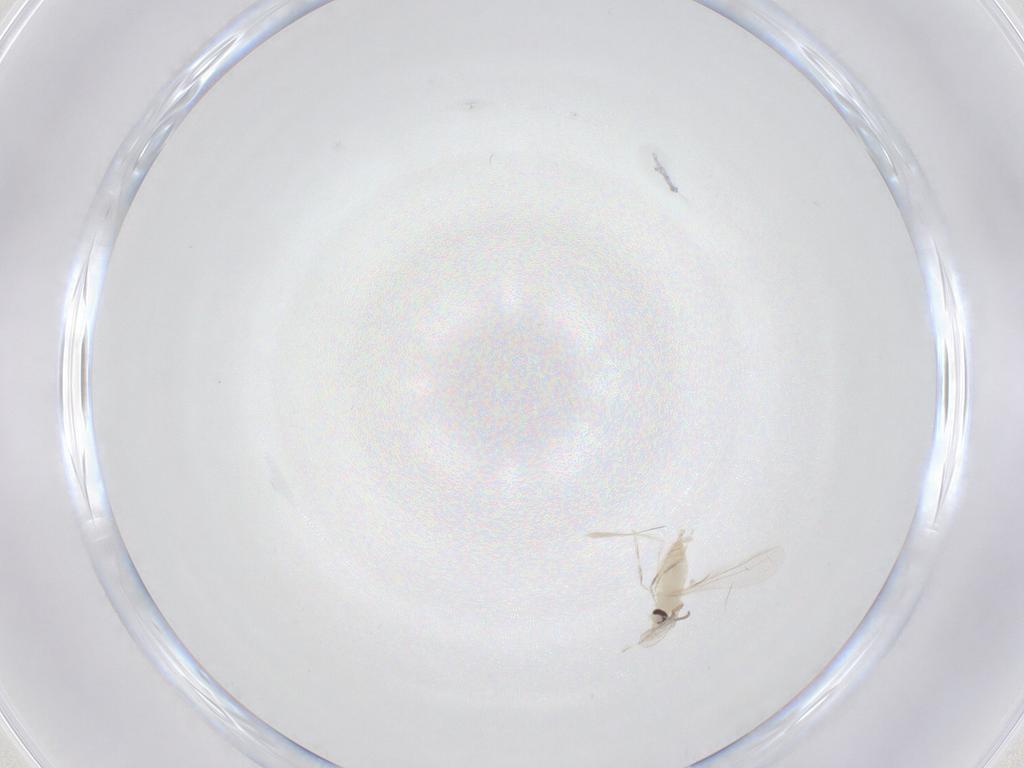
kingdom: Animalia
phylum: Arthropoda
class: Insecta
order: Diptera
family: Cecidomyiidae
